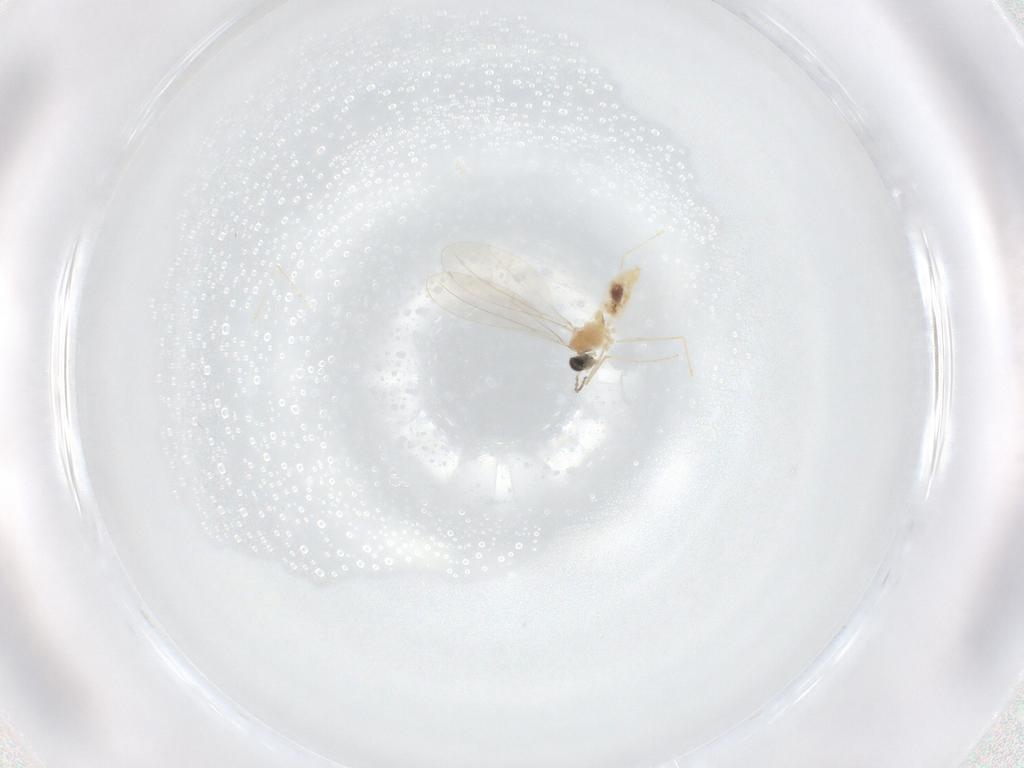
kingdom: Animalia
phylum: Arthropoda
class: Insecta
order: Diptera
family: Cecidomyiidae
